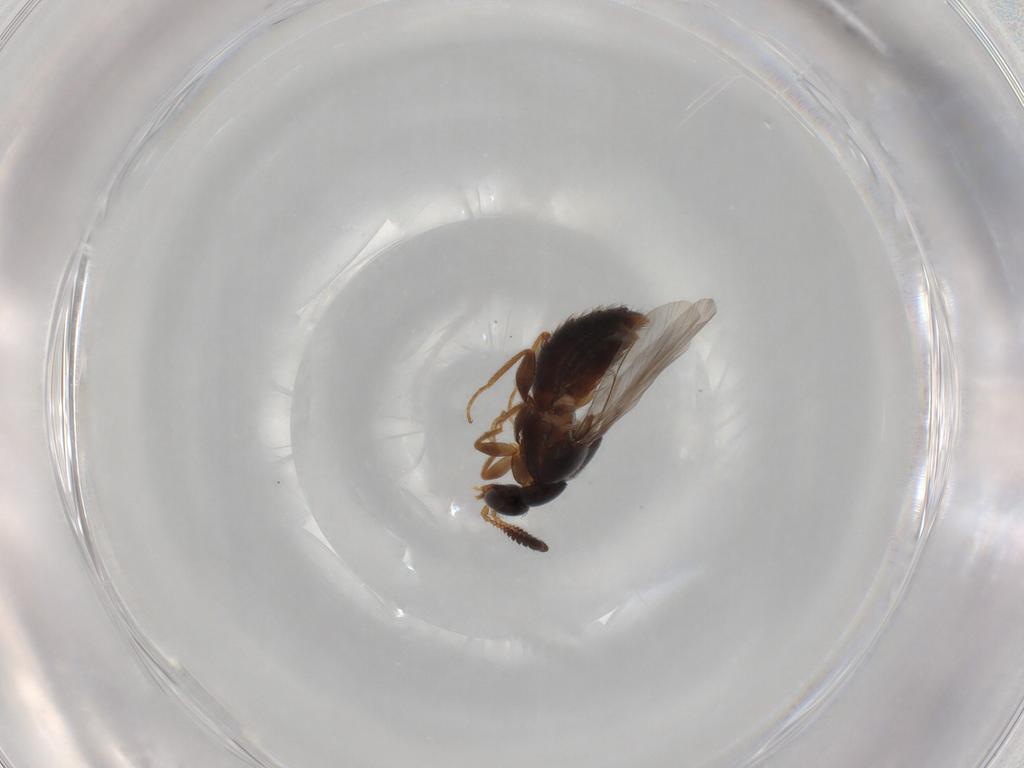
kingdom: Animalia
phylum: Arthropoda
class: Insecta
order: Coleoptera
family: Staphylinidae
